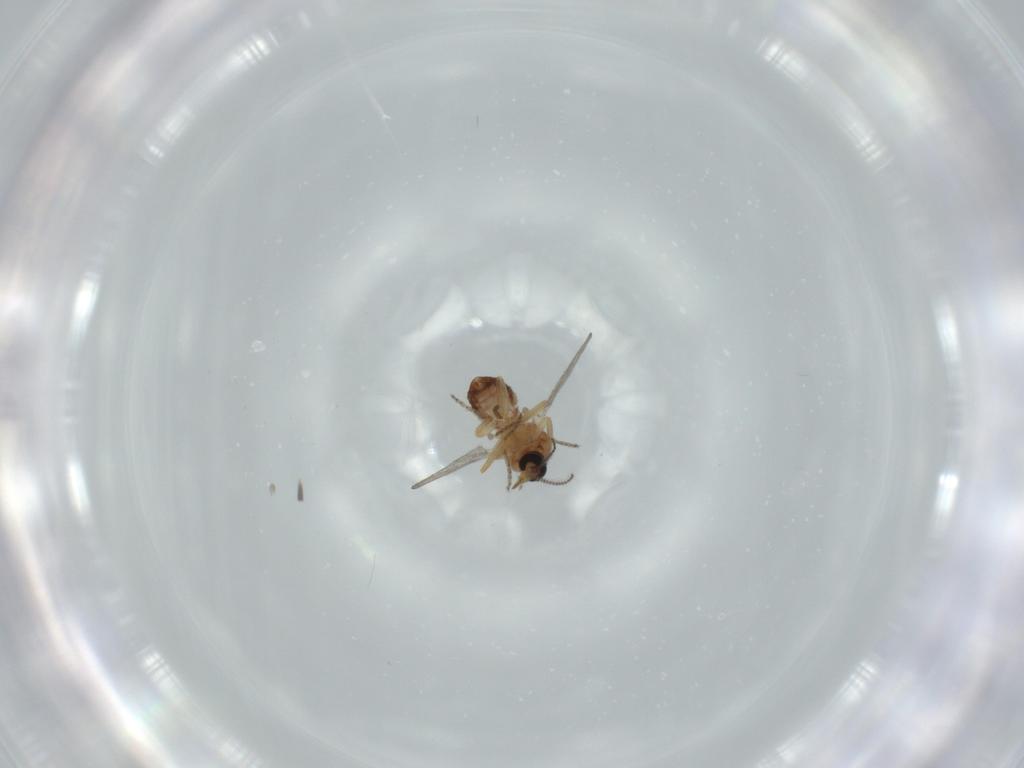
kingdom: Animalia
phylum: Arthropoda
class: Insecta
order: Diptera
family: Ceratopogonidae
